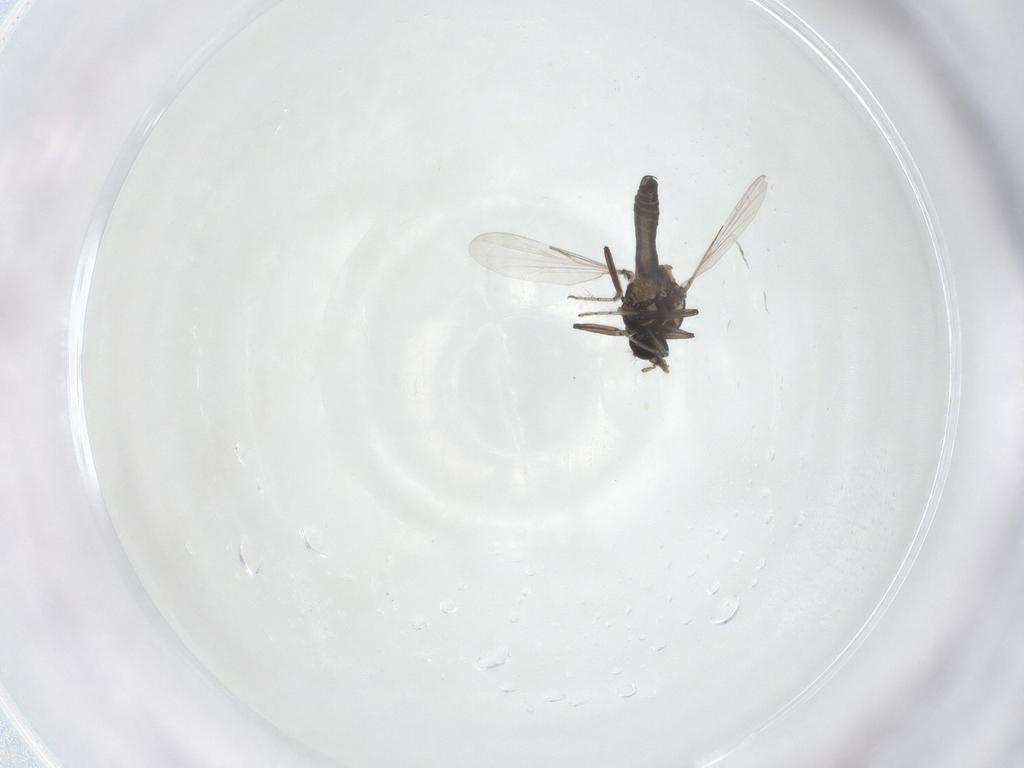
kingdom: Animalia
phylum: Arthropoda
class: Insecta
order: Diptera
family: Ceratopogonidae
